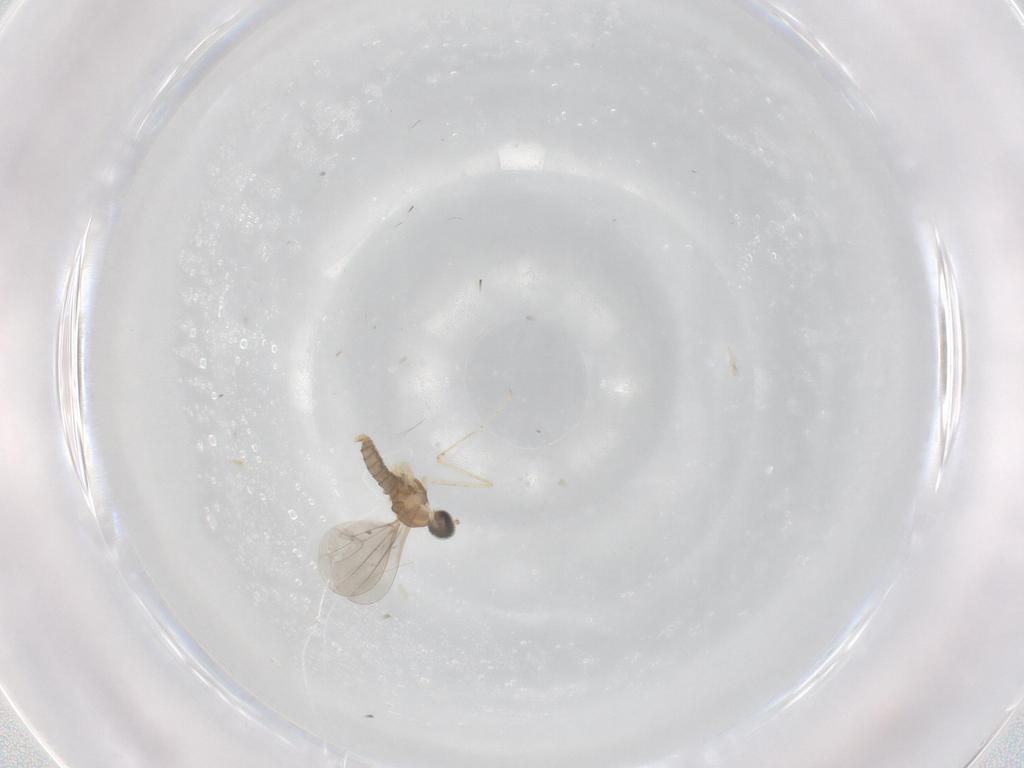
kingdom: Animalia
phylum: Arthropoda
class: Insecta
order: Diptera
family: Cecidomyiidae
